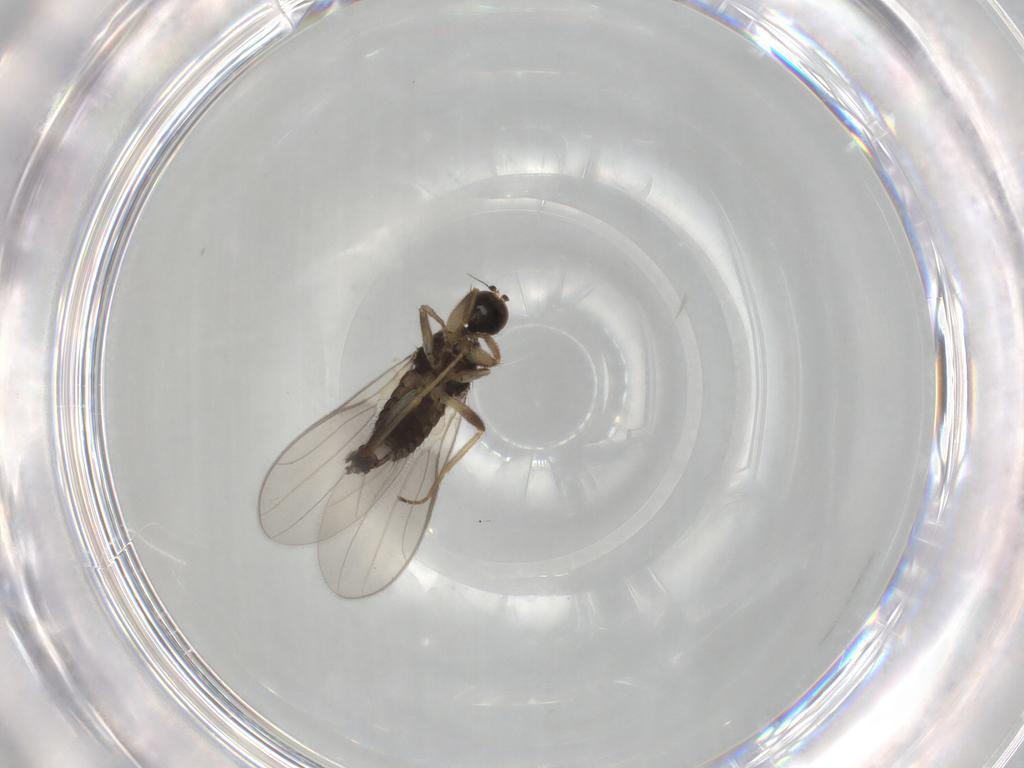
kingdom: Animalia
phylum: Arthropoda
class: Insecta
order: Diptera
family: Hybotidae
